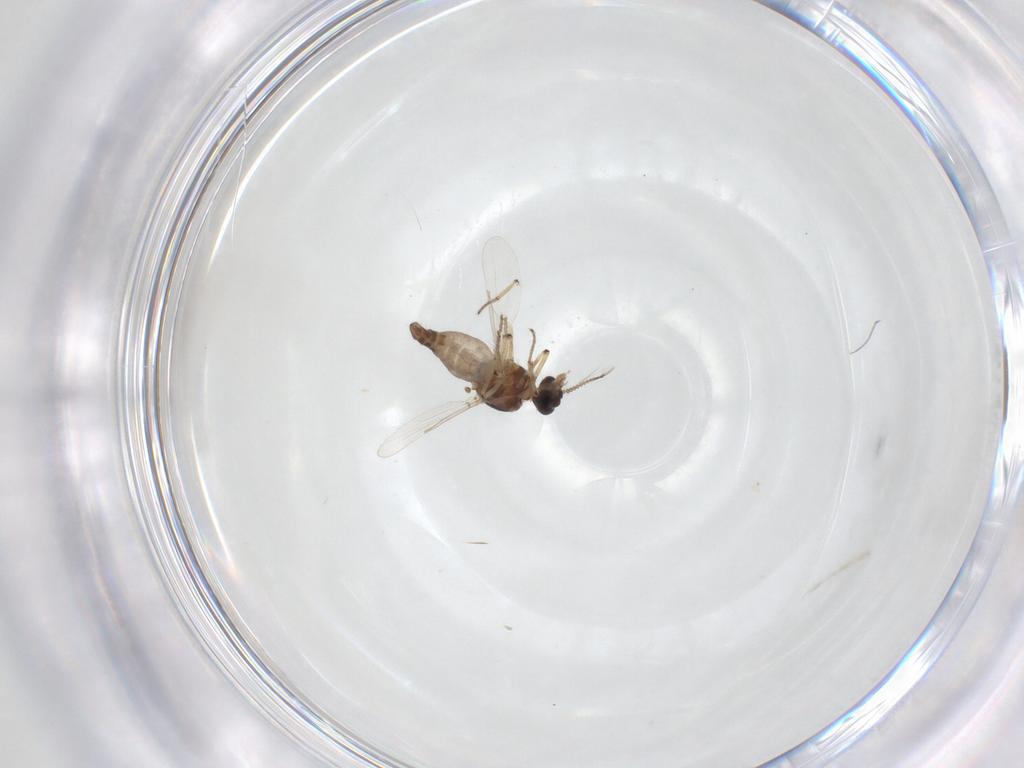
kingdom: Animalia
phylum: Arthropoda
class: Insecta
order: Diptera
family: Ceratopogonidae
